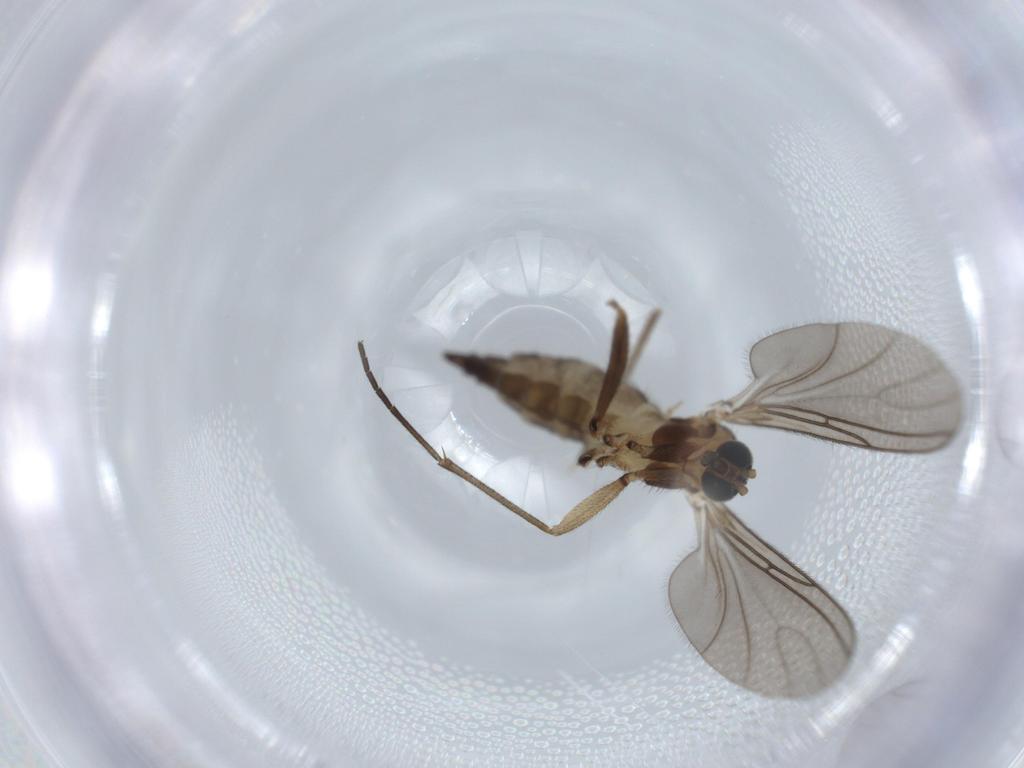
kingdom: Animalia
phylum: Arthropoda
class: Insecta
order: Diptera
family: Sciaridae
